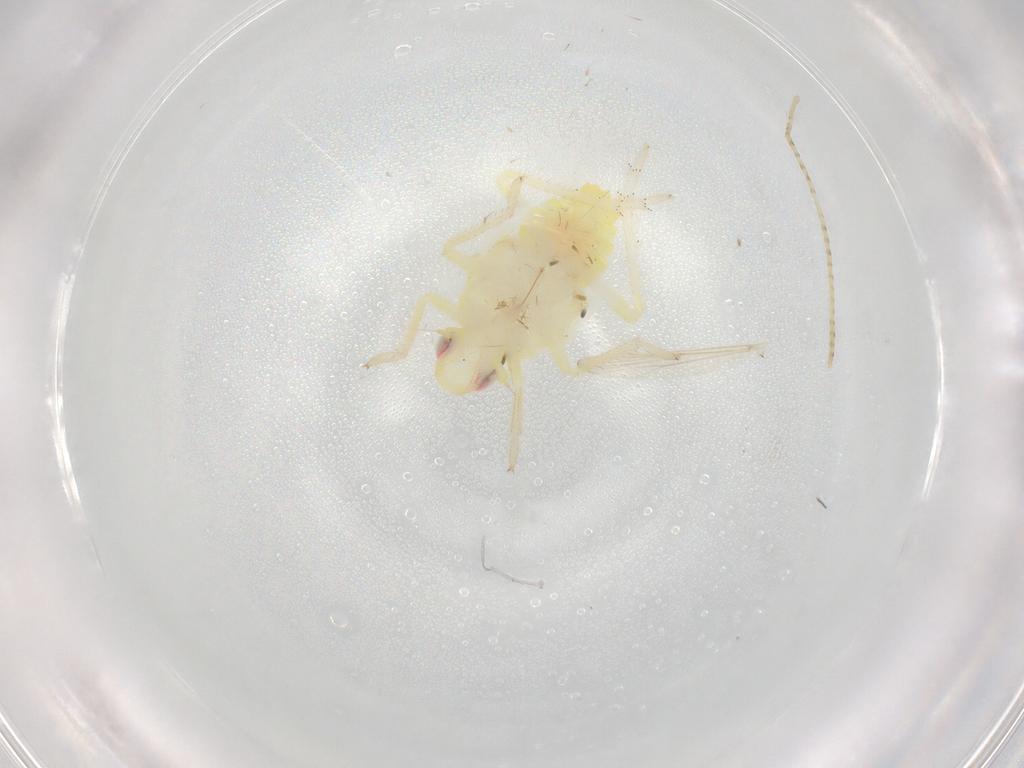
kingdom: Animalia
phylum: Arthropoda
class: Insecta
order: Hemiptera
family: Tropiduchidae
